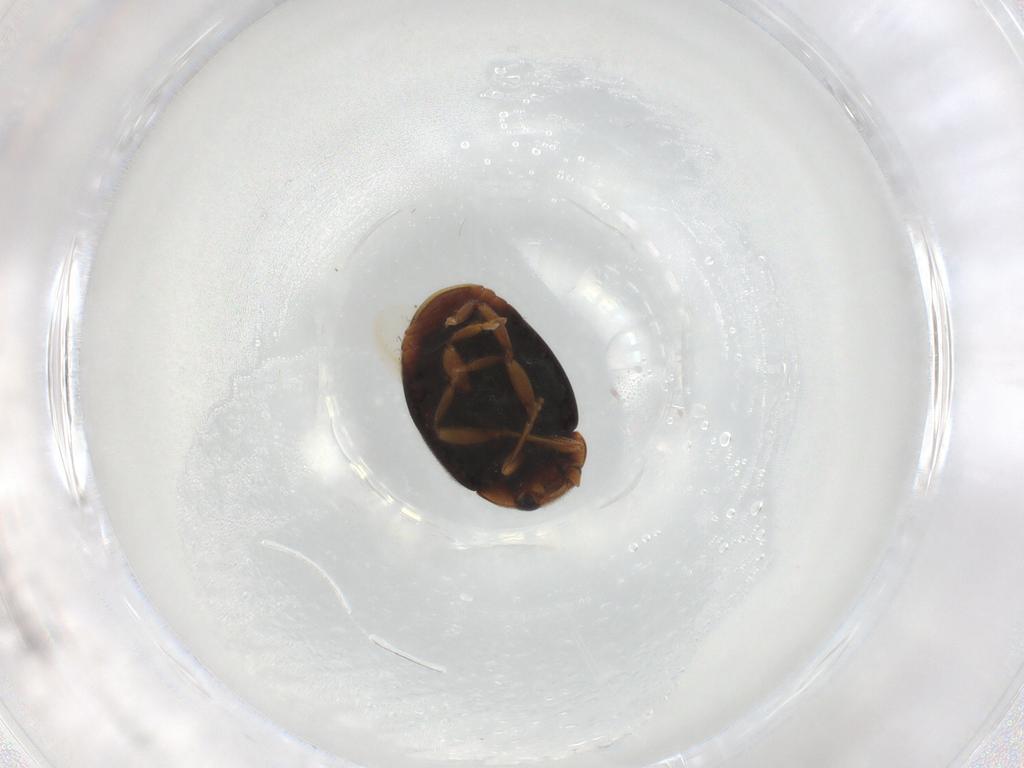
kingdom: Animalia
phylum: Arthropoda
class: Insecta
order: Coleoptera
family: Coccinellidae
